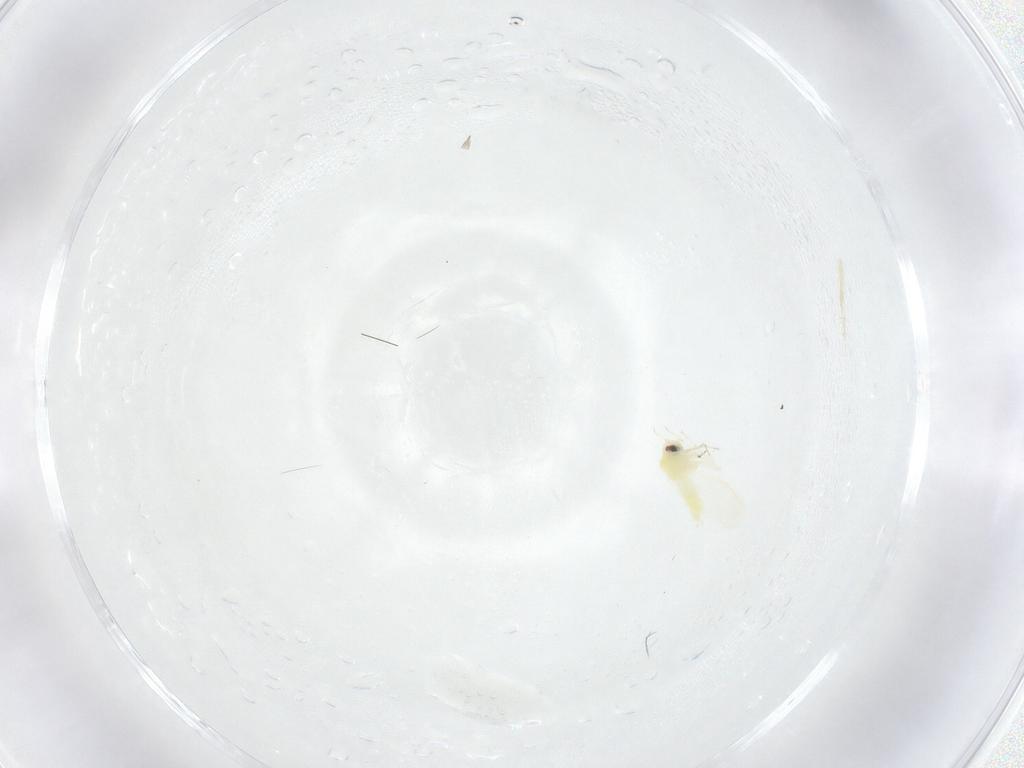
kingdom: Animalia
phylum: Arthropoda
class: Insecta
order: Hemiptera
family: Aleyrodidae
